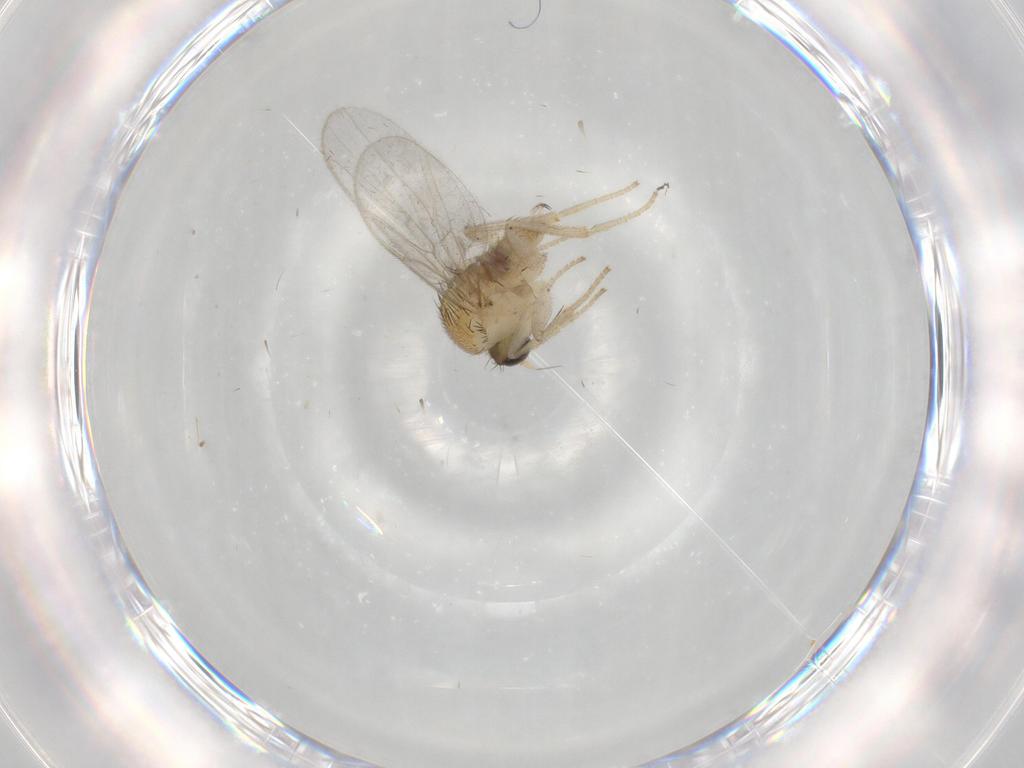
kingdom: Animalia
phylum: Arthropoda
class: Insecta
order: Diptera
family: Hybotidae
